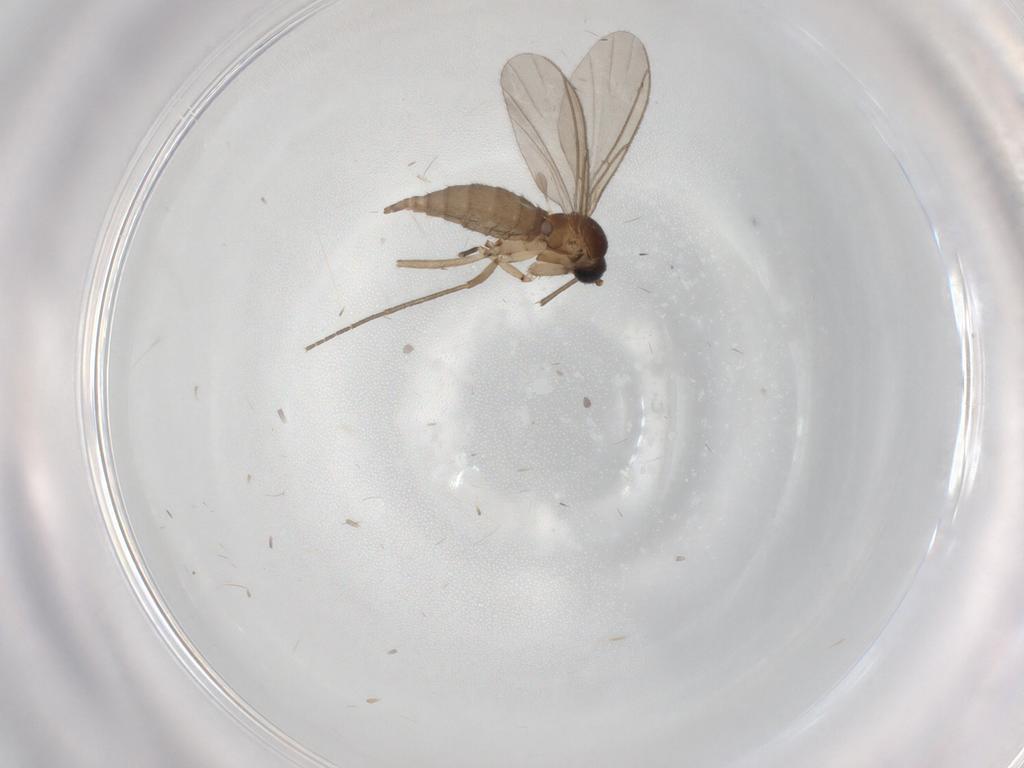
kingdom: Animalia
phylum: Arthropoda
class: Insecta
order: Diptera
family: Sciaridae
